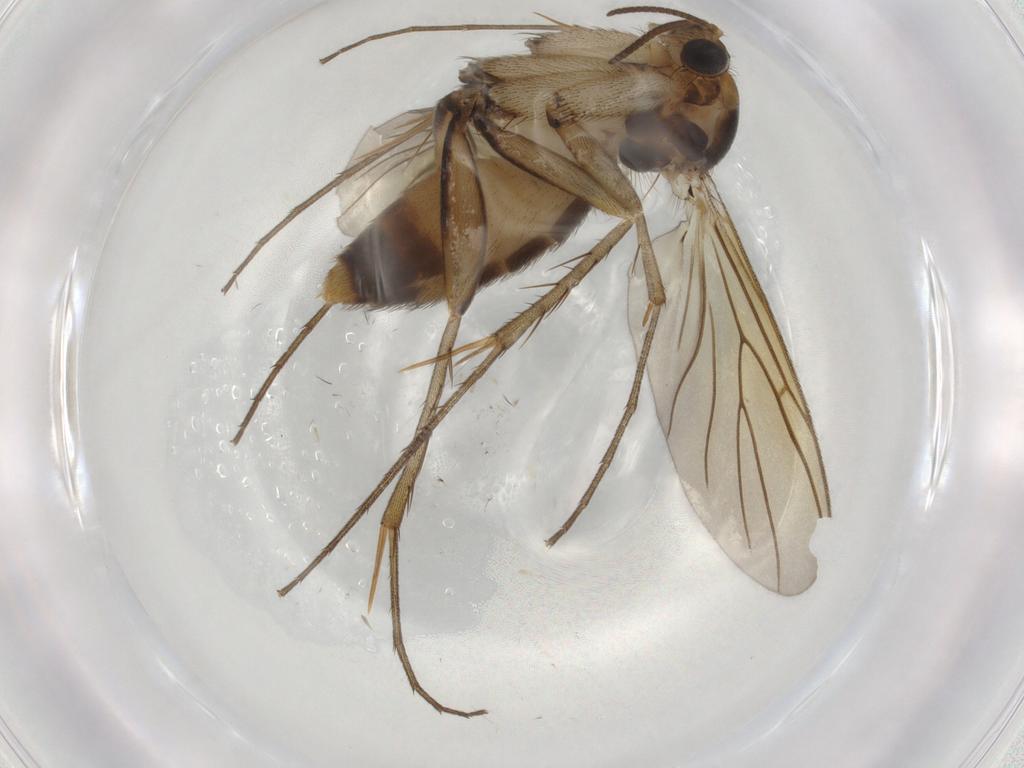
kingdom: Animalia
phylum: Arthropoda
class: Insecta
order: Diptera
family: Mycetophilidae
